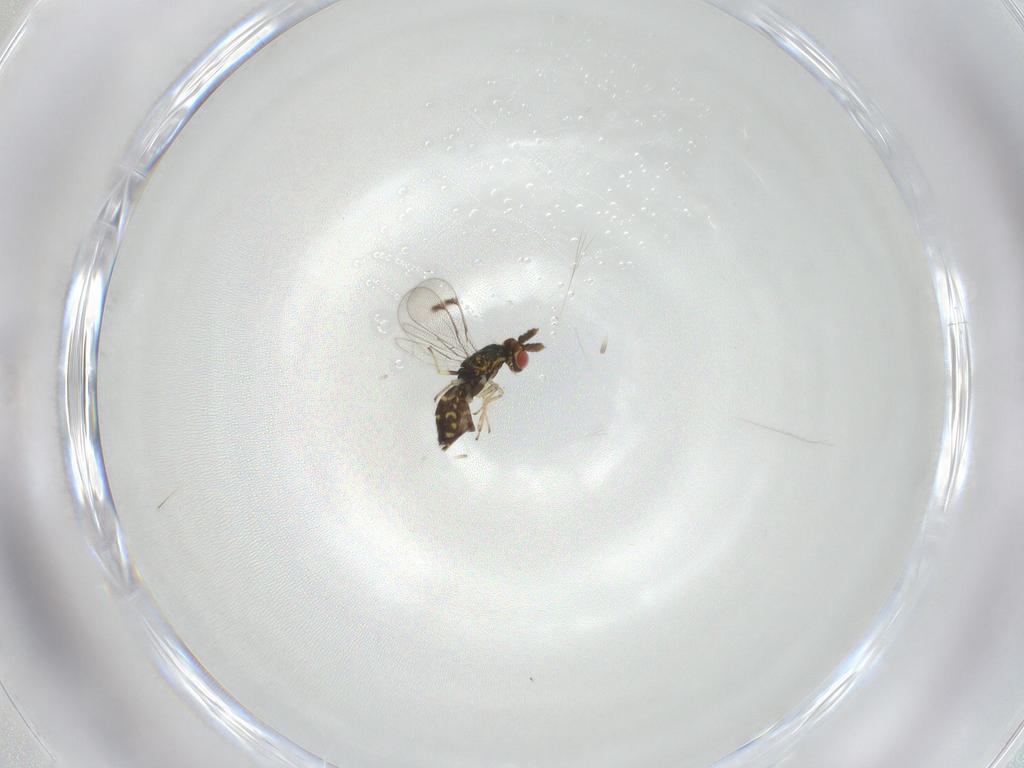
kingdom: Animalia
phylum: Arthropoda
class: Insecta
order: Hymenoptera
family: Eulophidae
